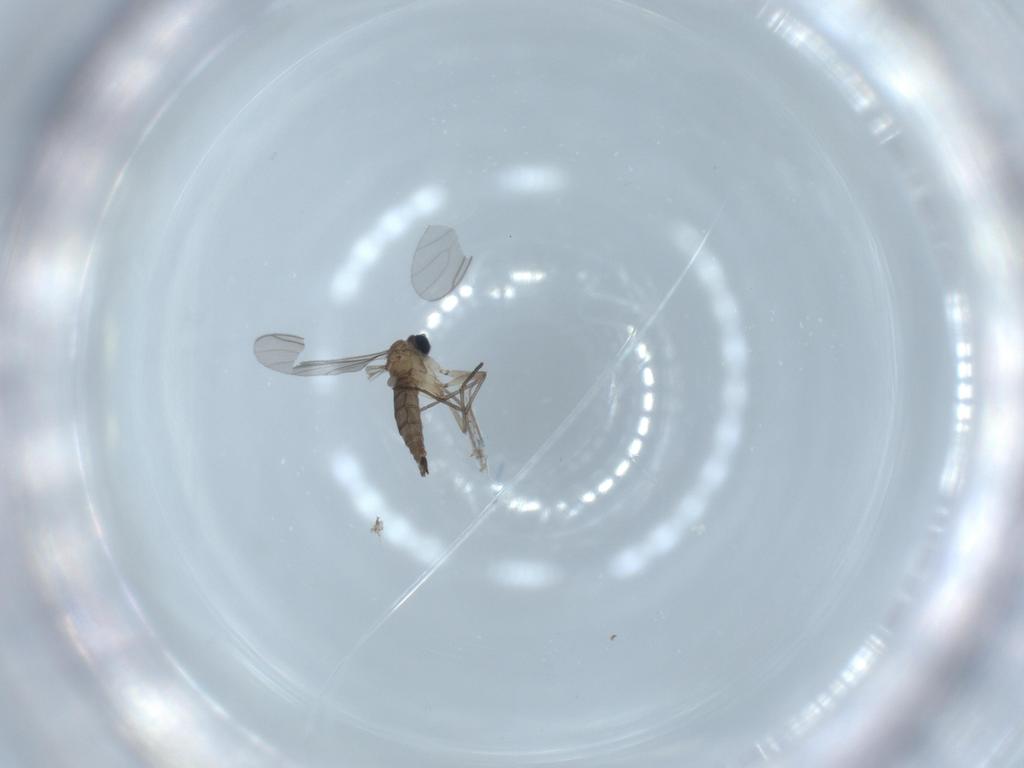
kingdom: Animalia
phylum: Arthropoda
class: Insecta
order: Diptera
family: Sciaridae
